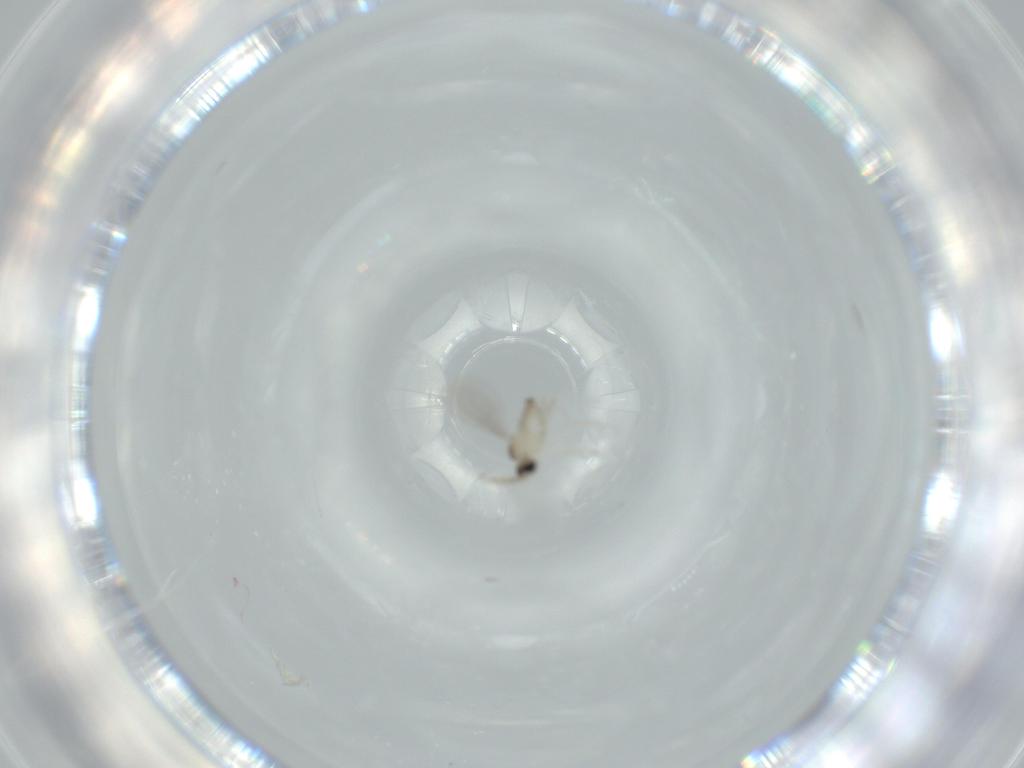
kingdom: Animalia
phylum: Arthropoda
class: Insecta
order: Diptera
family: Cecidomyiidae
